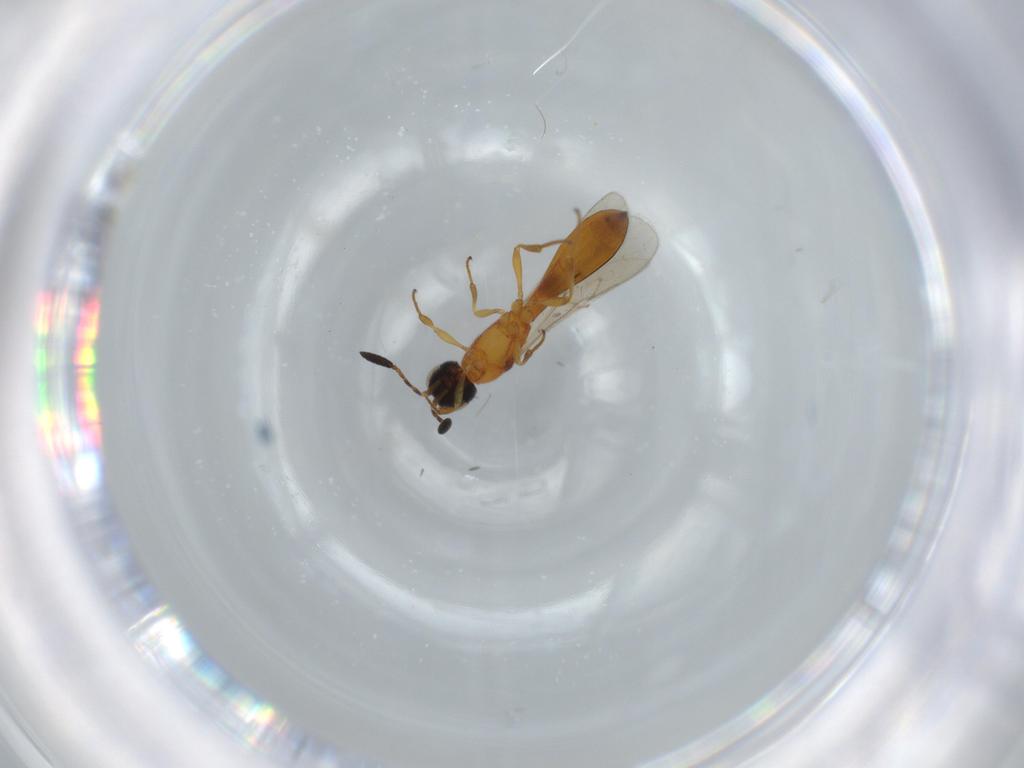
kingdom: Animalia
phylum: Arthropoda
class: Insecta
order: Hymenoptera
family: Scelionidae
